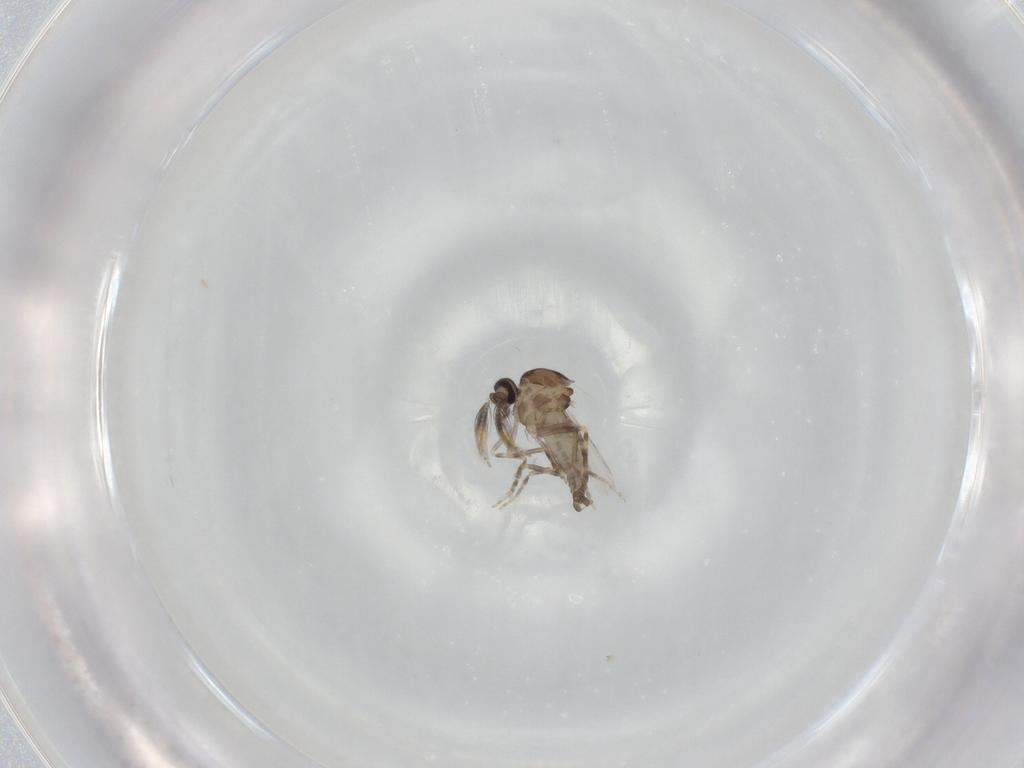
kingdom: Animalia
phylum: Arthropoda
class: Insecta
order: Diptera
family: Ceratopogonidae
